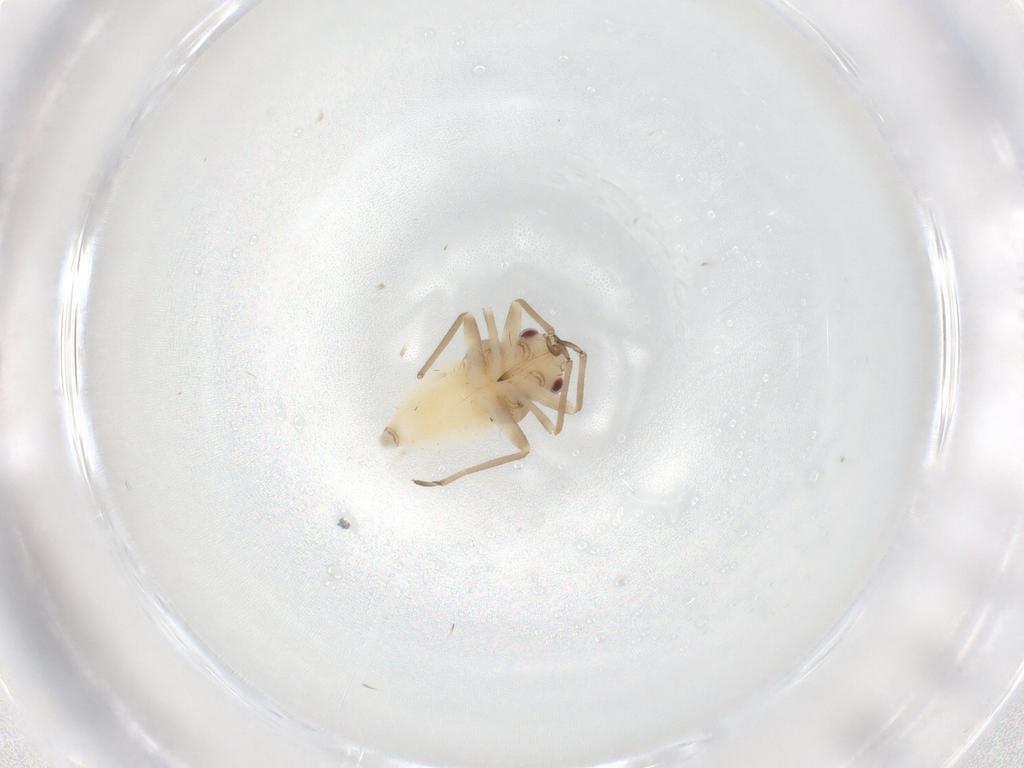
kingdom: Animalia
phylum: Arthropoda
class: Insecta
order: Hemiptera
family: Miridae
